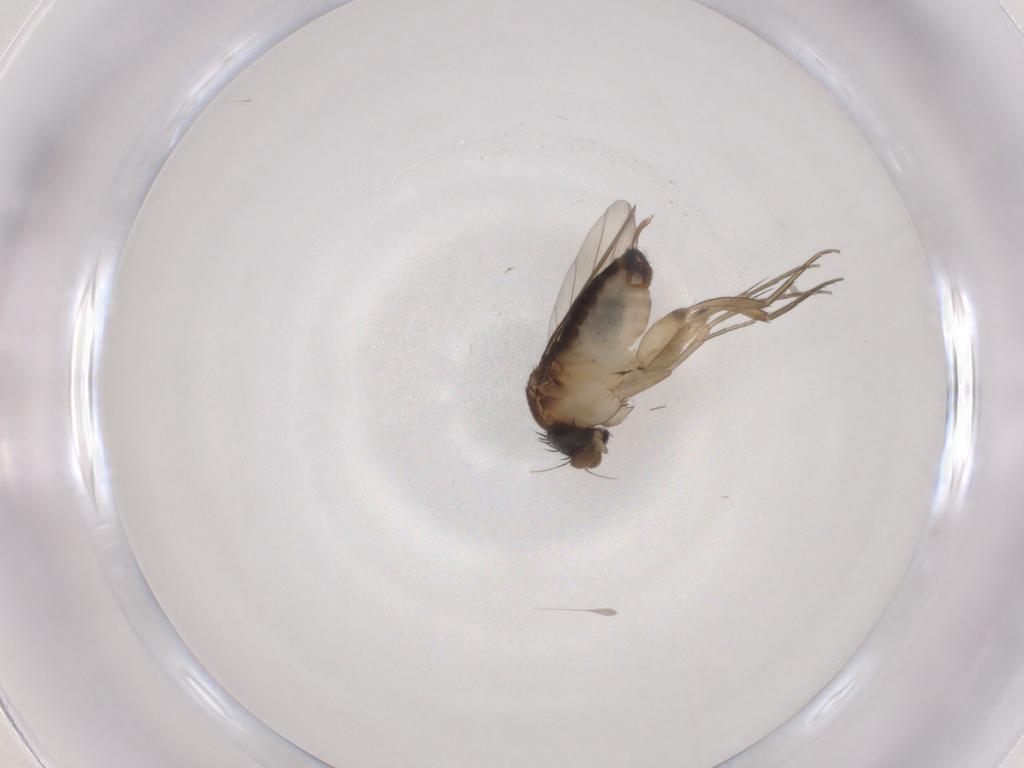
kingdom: Animalia
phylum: Arthropoda
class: Insecta
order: Diptera
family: Phoridae
